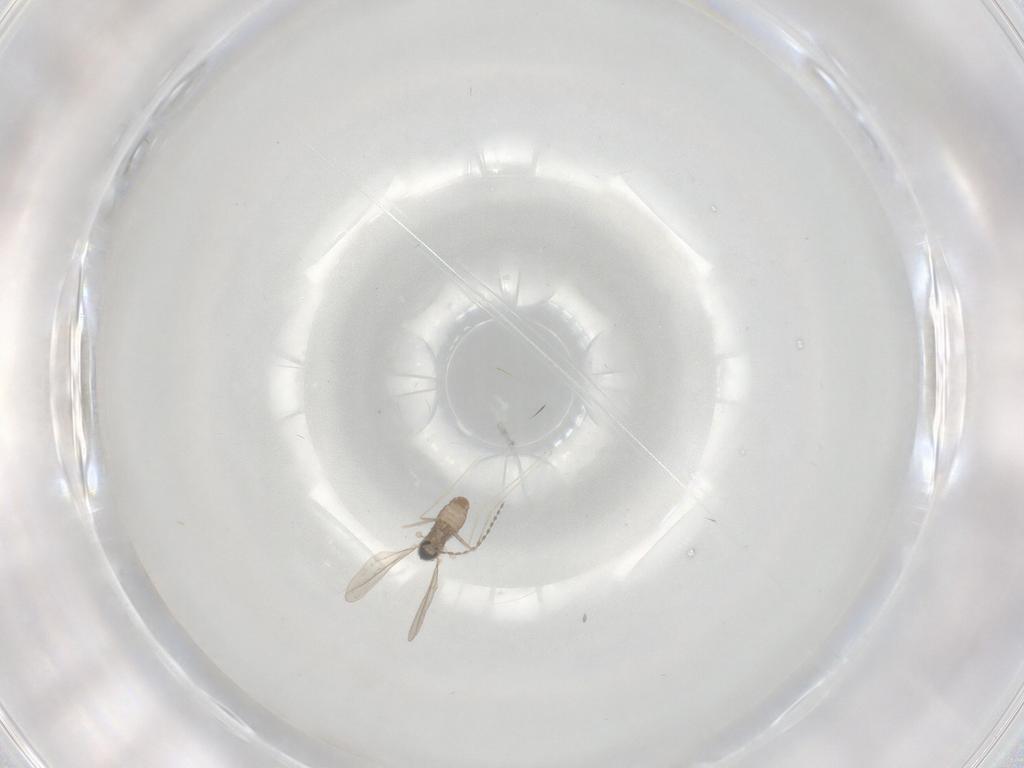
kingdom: Animalia
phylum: Arthropoda
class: Insecta
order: Diptera
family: Cecidomyiidae
